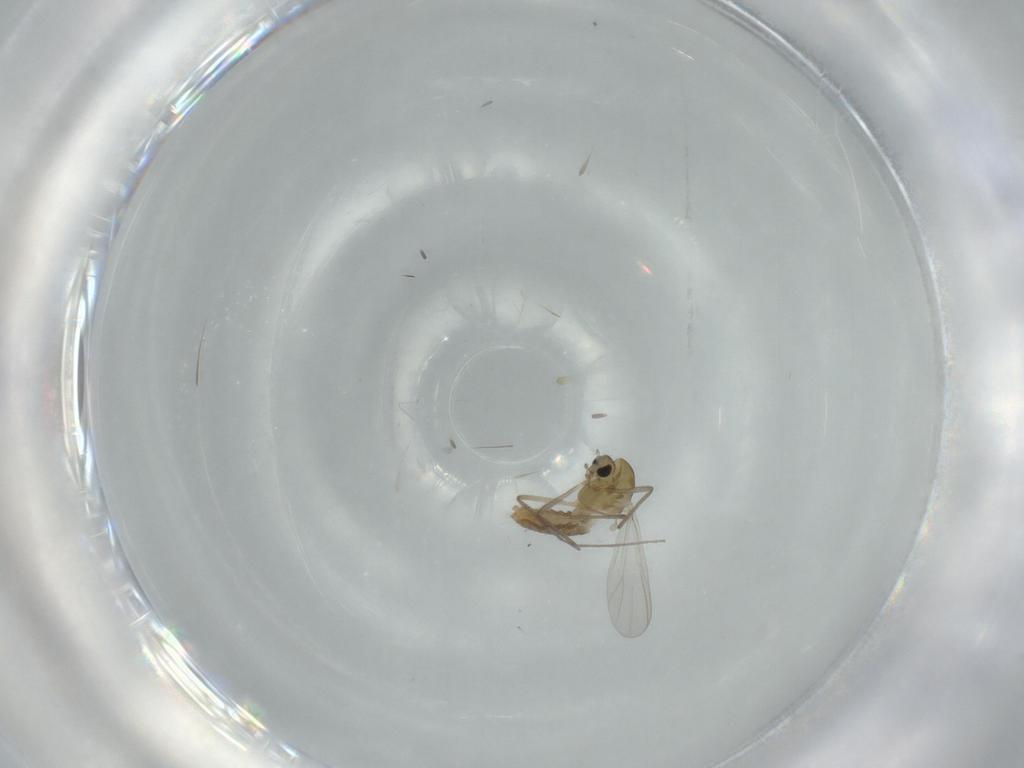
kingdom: Animalia
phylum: Arthropoda
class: Insecta
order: Diptera
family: Chironomidae
